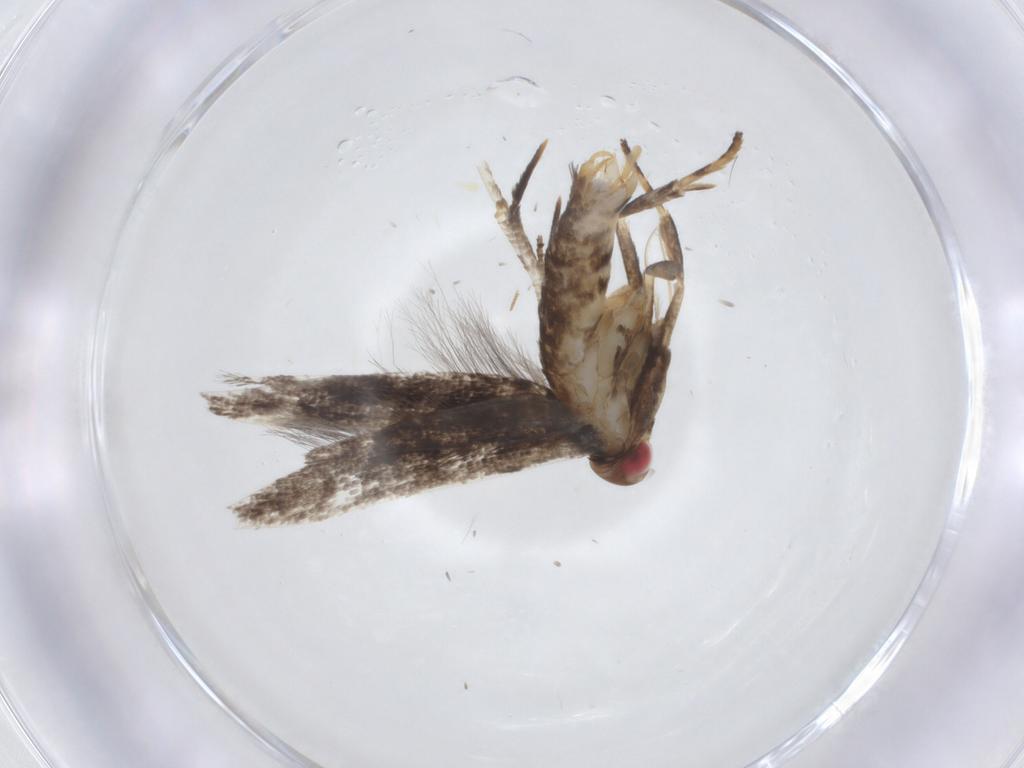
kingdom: Animalia
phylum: Arthropoda
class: Insecta
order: Lepidoptera
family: Gelechiidae
